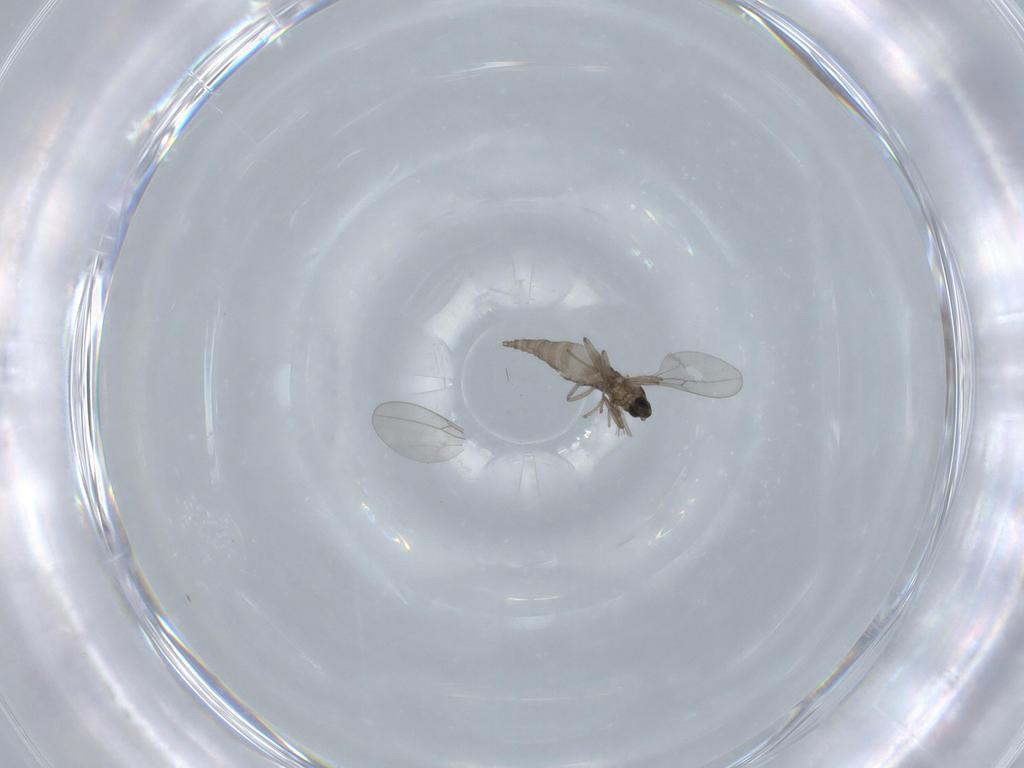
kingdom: Animalia
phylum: Arthropoda
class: Insecta
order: Diptera
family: Cecidomyiidae
